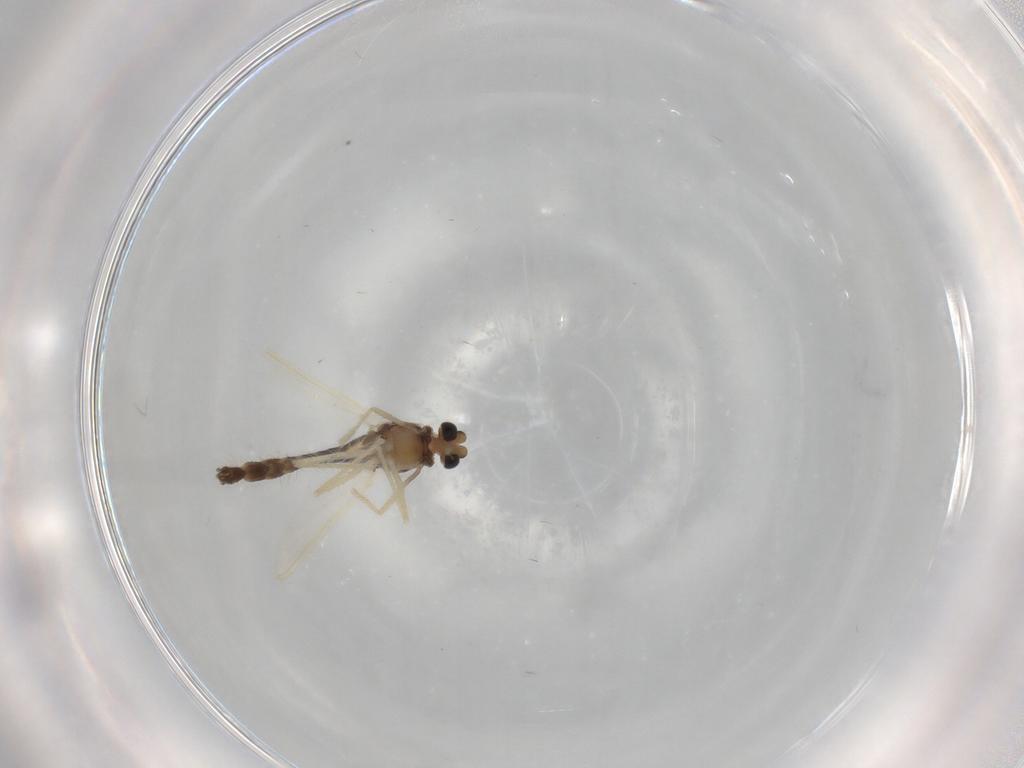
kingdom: Animalia
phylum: Arthropoda
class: Insecta
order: Diptera
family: Chironomidae
